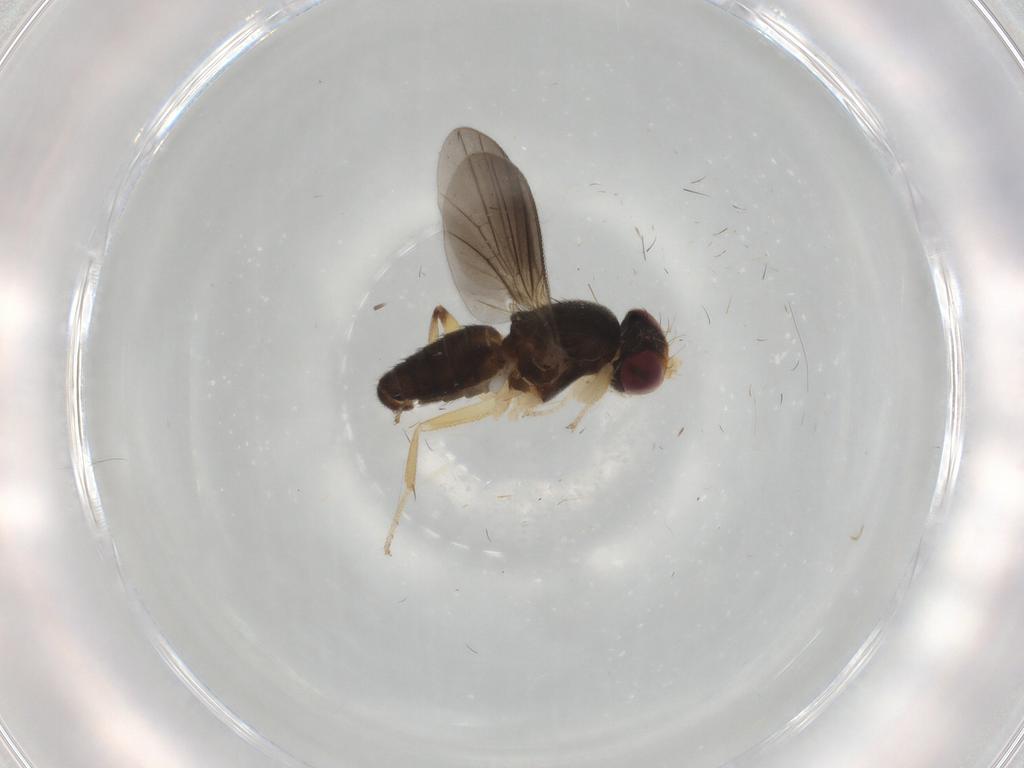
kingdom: Animalia
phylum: Arthropoda
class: Insecta
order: Diptera
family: Clusiidae
